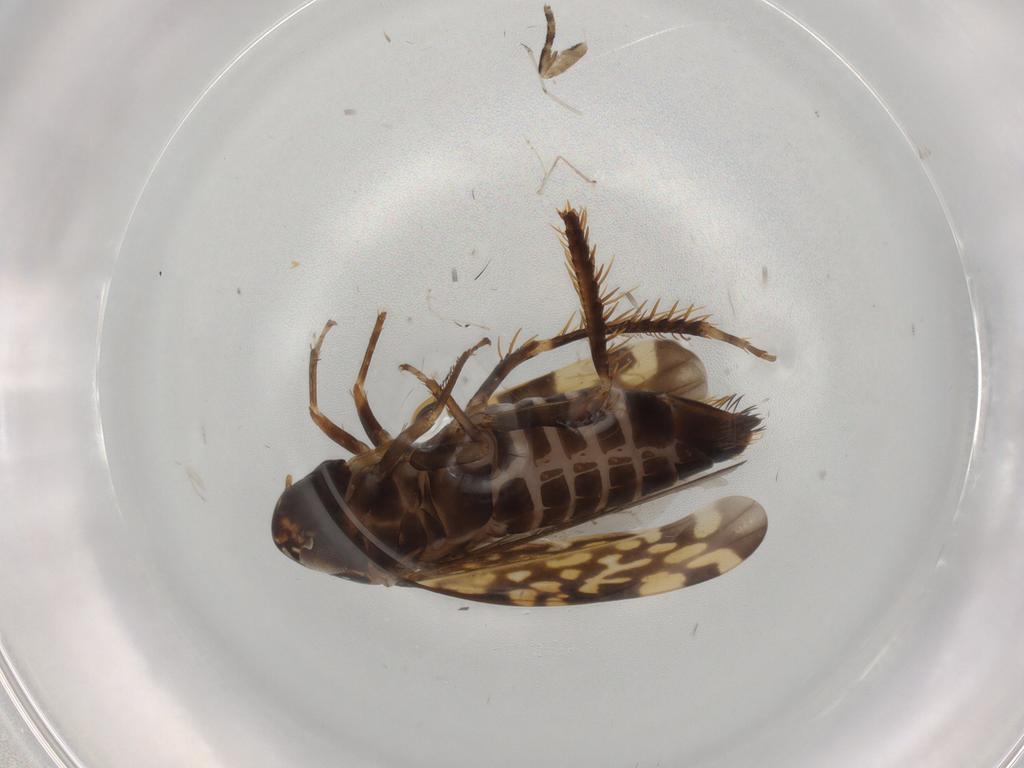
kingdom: Animalia
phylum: Arthropoda
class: Insecta
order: Hemiptera
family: Cicadellidae
